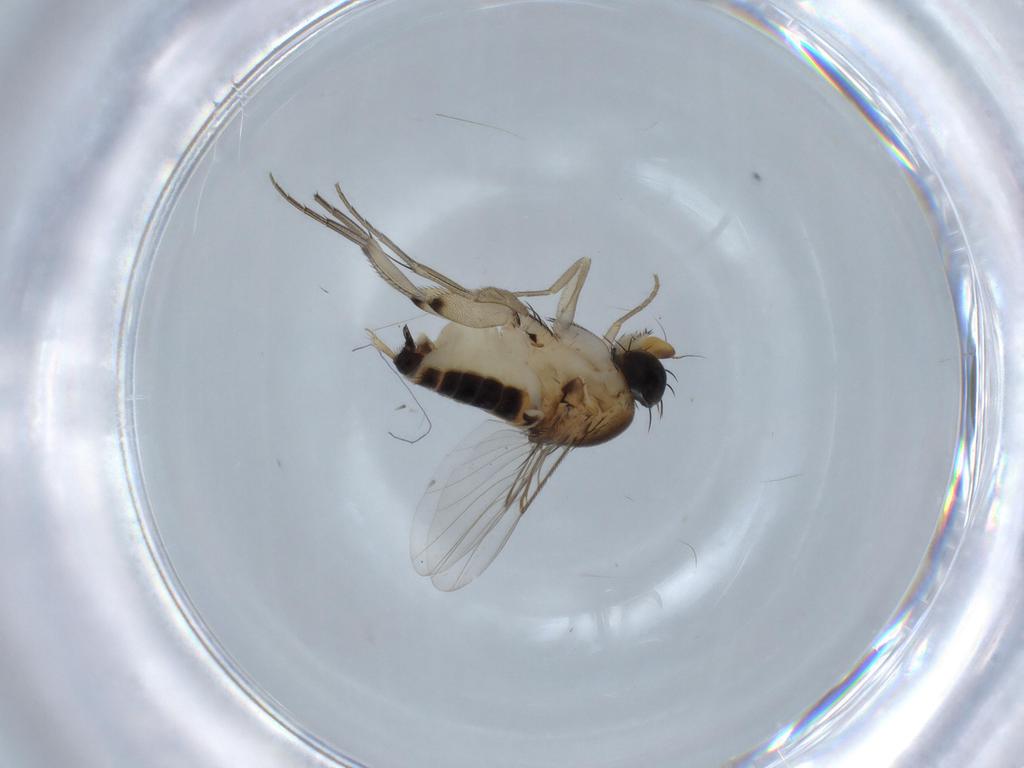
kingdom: Animalia
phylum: Arthropoda
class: Insecta
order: Diptera
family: Phoridae
